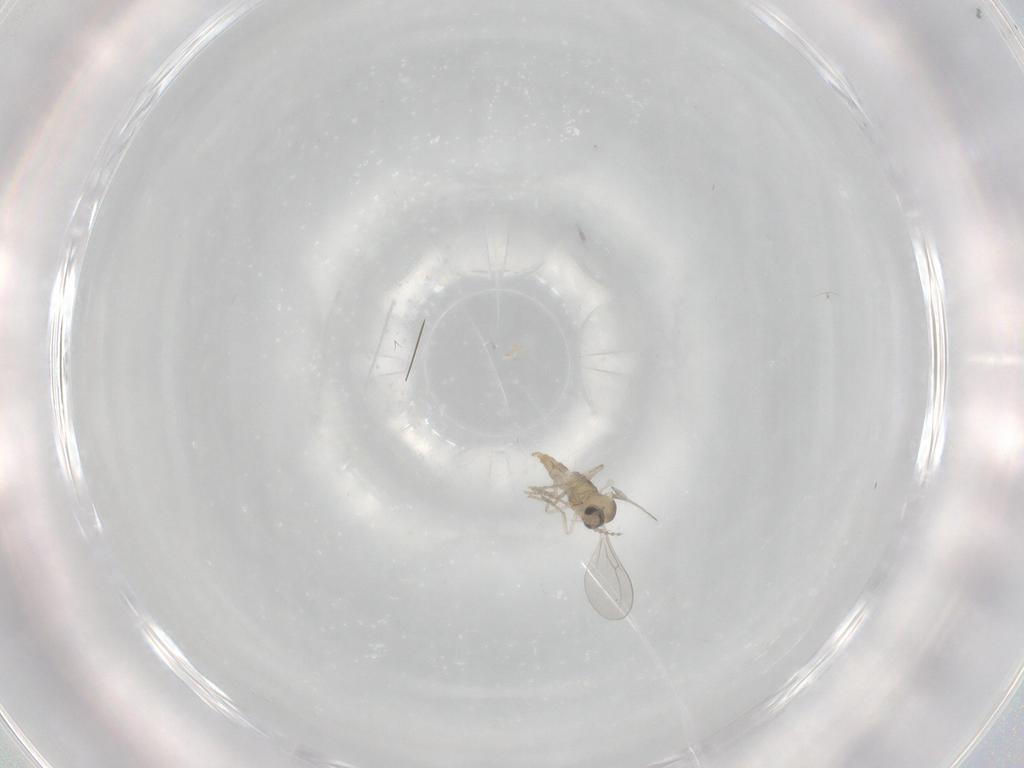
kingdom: Animalia
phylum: Arthropoda
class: Insecta
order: Diptera
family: Cecidomyiidae
